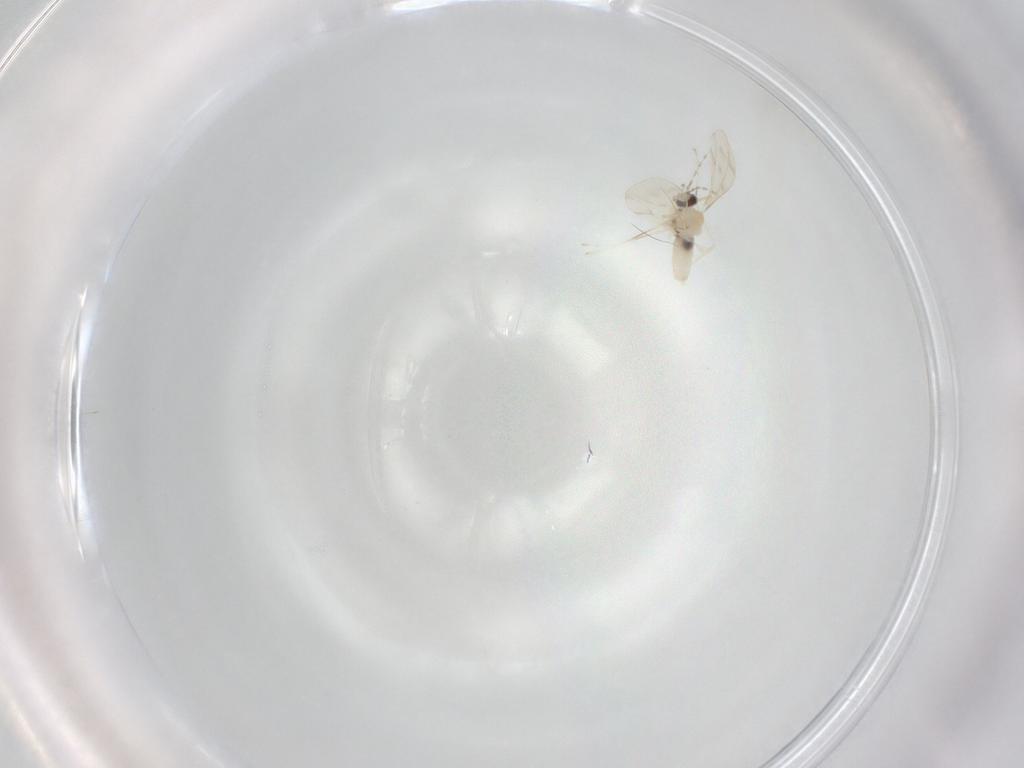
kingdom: Animalia
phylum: Arthropoda
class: Insecta
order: Diptera
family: Cecidomyiidae
